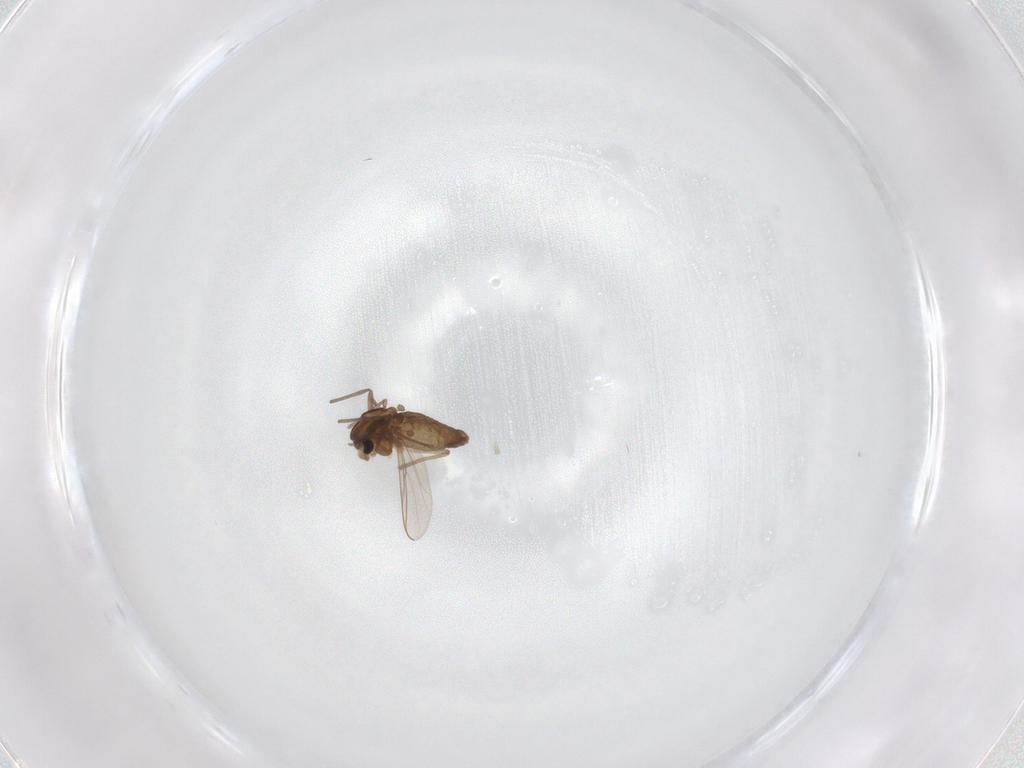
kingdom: Animalia
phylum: Arthropoda
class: Insecta
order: Diptera
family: Chironomidae
